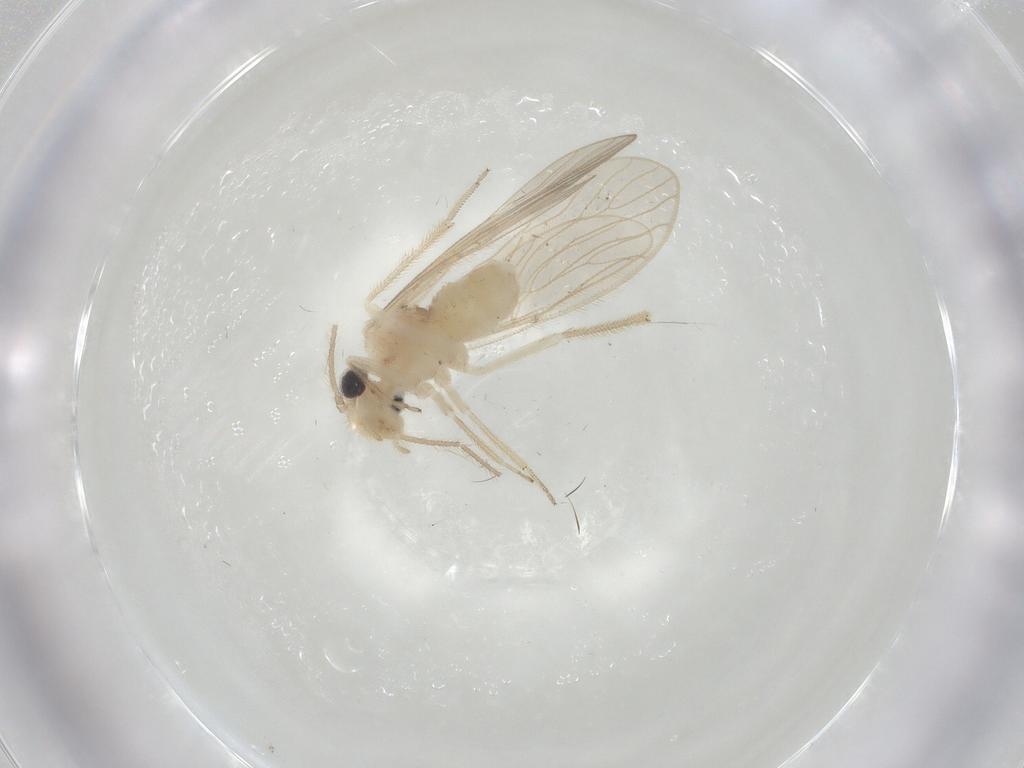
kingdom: Animalia
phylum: Arthropoda
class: Insecta
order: Psocodea
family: Cladiopsocidae
